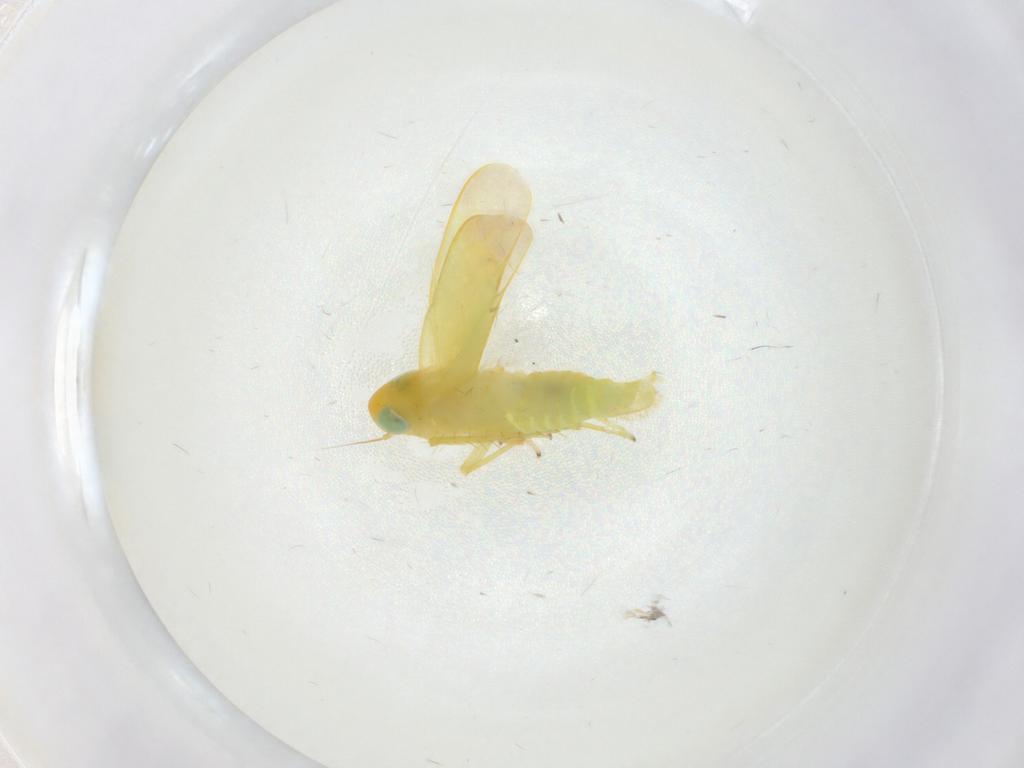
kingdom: Animalia
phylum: Arthropoda
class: Insecta
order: Hemiptera
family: Cicadellidae
